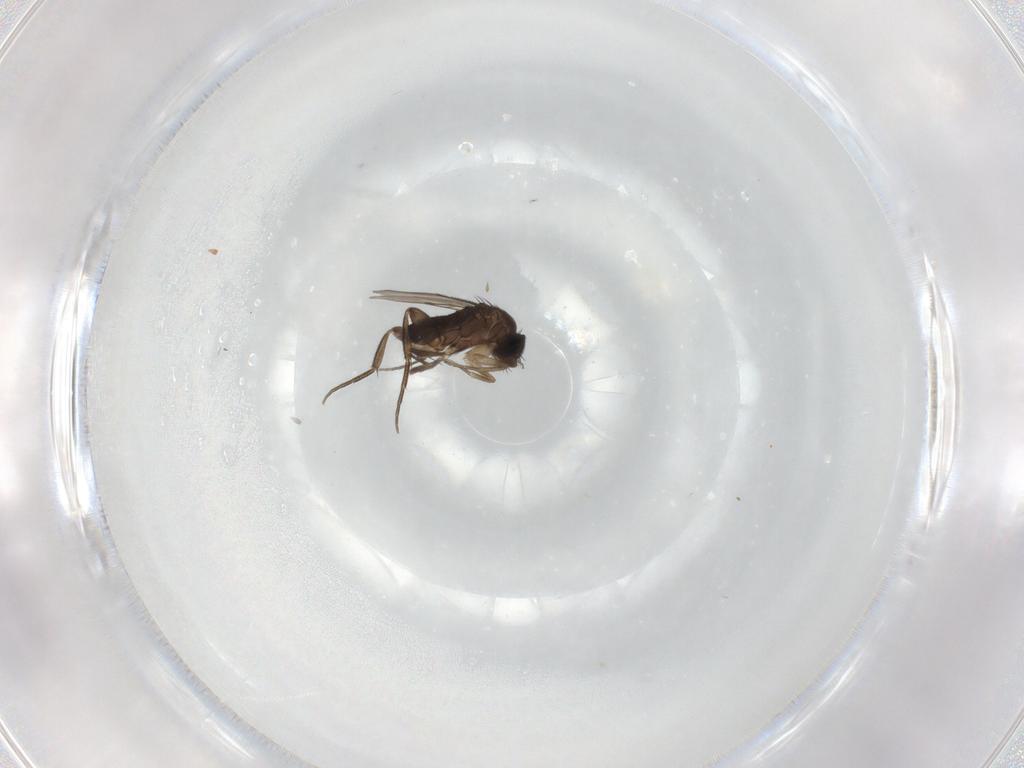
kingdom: Animalia
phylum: Arthropoda
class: Insecta
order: Diptera
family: Phoridae
